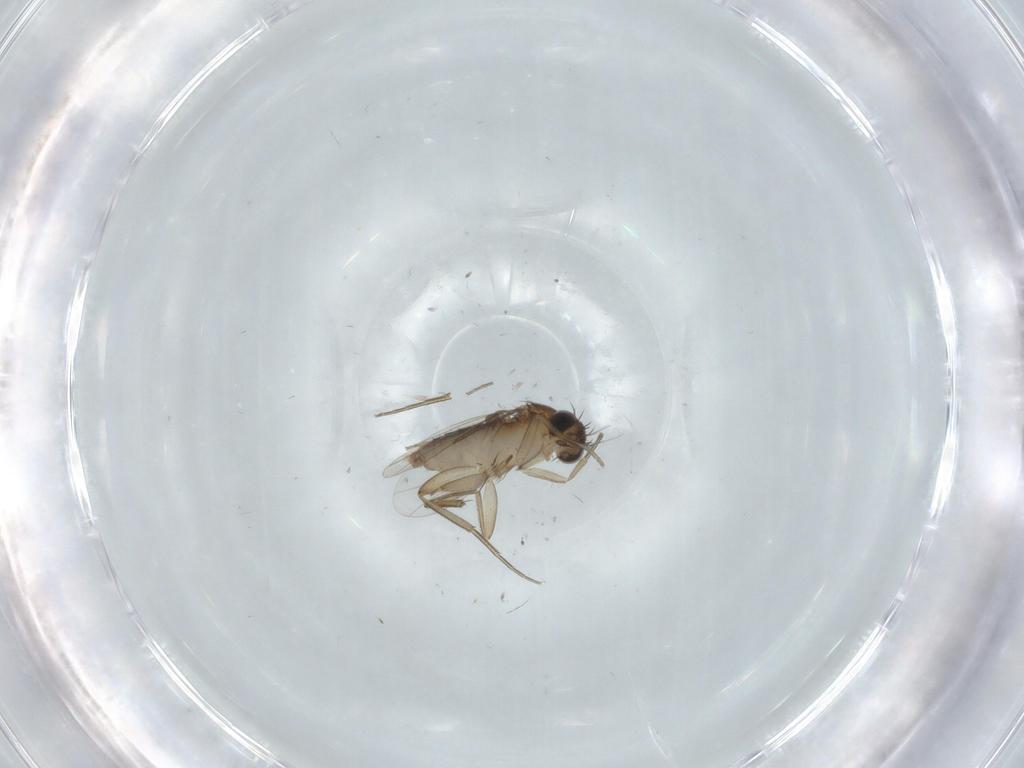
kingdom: Animalia
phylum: Arthropoda
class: Insecta
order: Diptera
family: Phoridae
